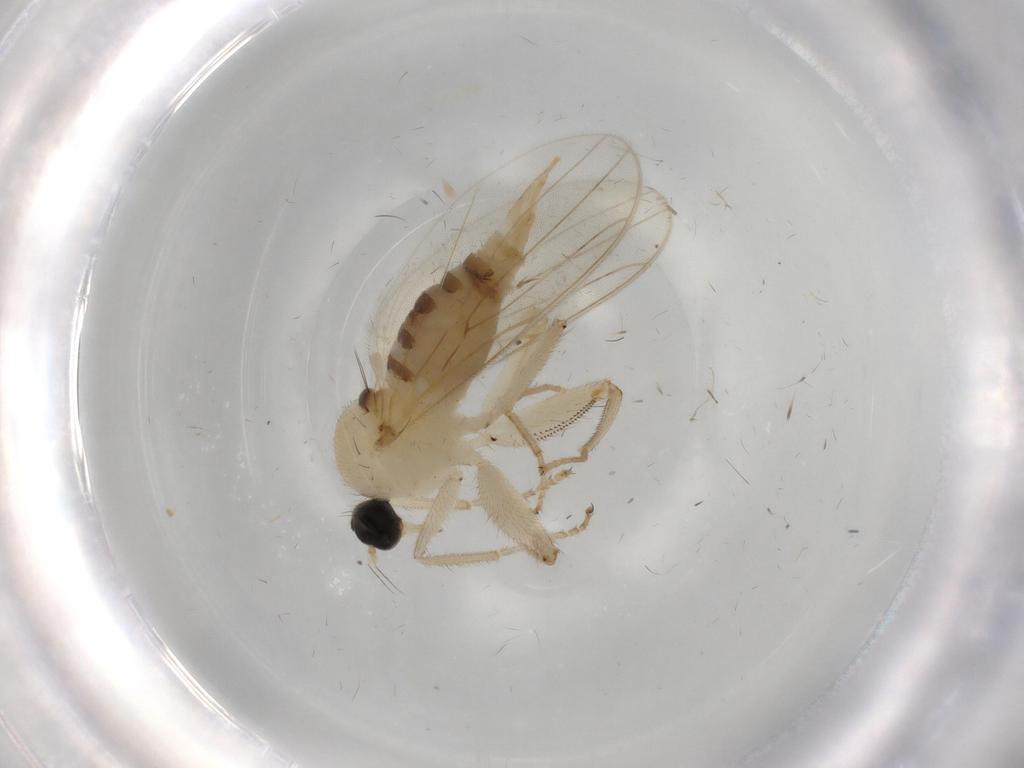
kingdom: Animalia
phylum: Arthropoda
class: Insecta
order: Diptera
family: Hybotidae
